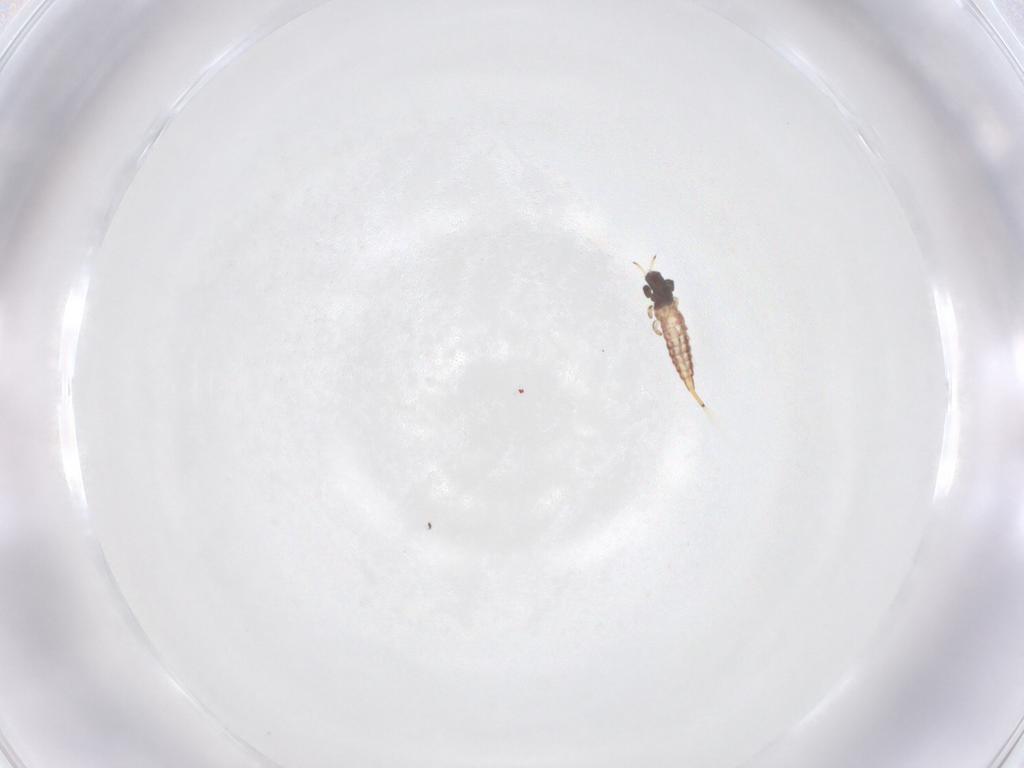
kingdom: Animalia
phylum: Arthropoda
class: Insecta
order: Thysanoptera
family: Phlaeothripidae
